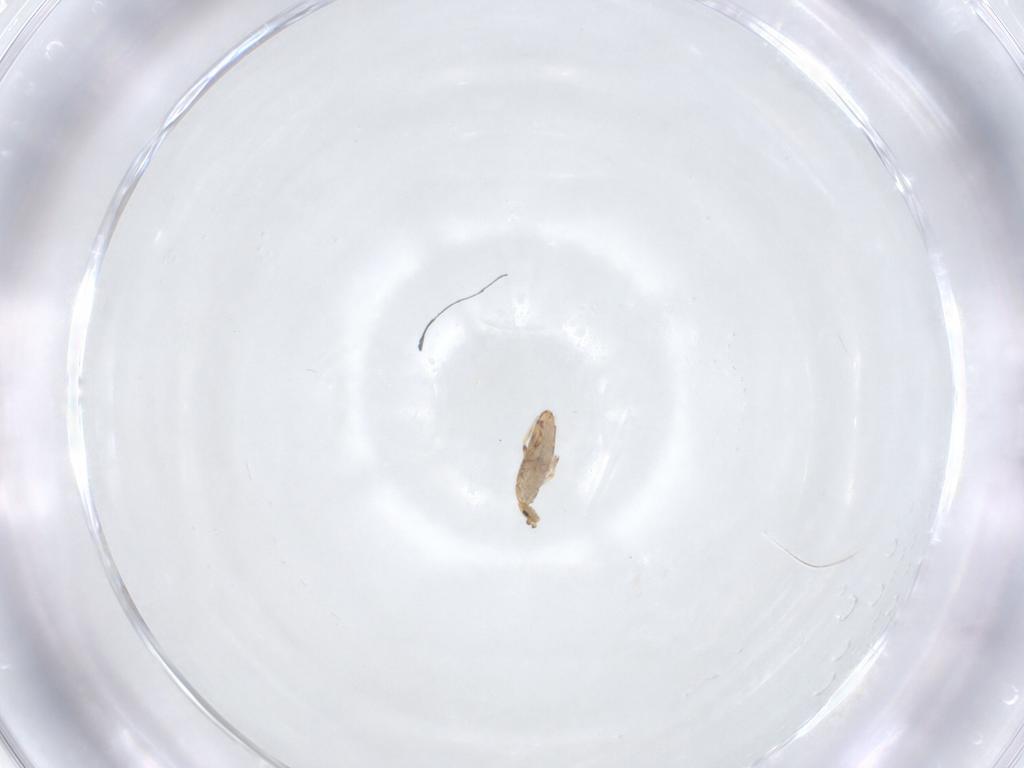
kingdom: Animalia
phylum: Arthropoda
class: Collembola
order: Entomobryomorpha
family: Entomobryidae
